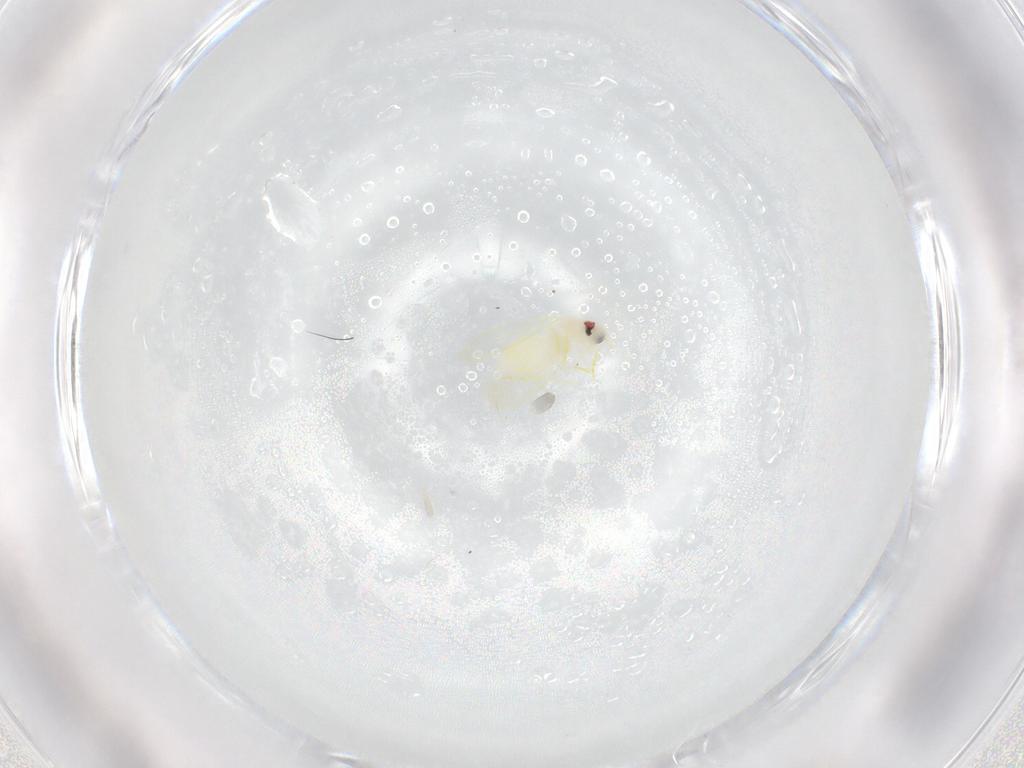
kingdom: Animalia
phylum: Arthropoda
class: Insecta
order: Hemiptera
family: Aleyrodidae
